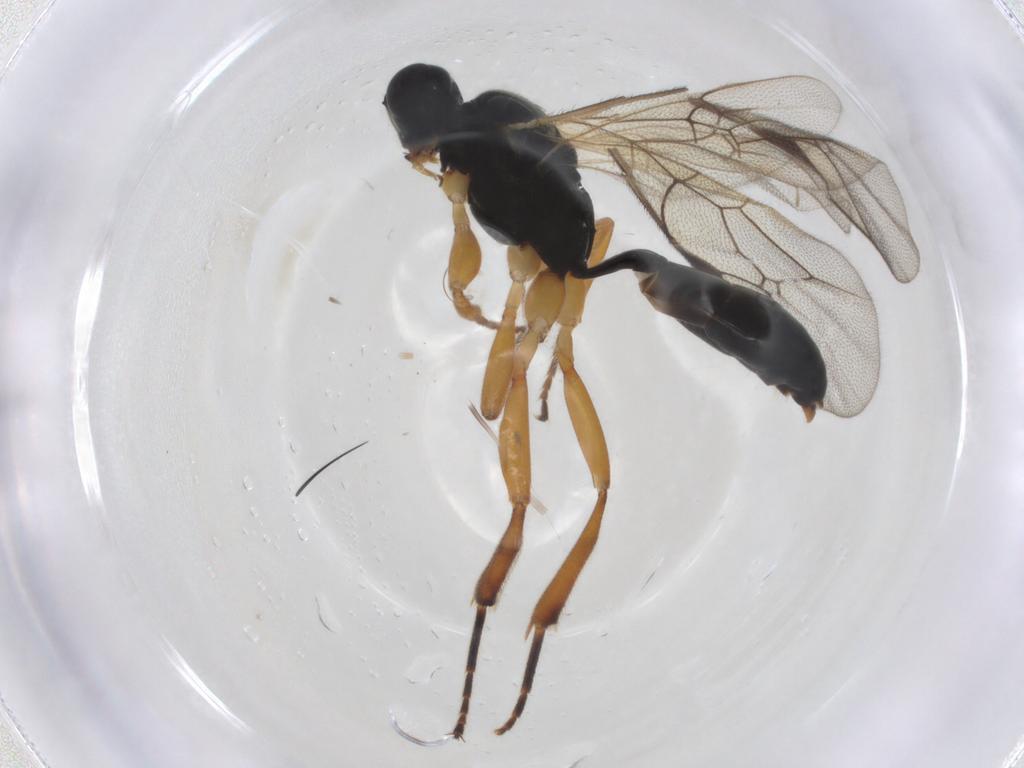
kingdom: Animalia
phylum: Arthropoda
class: Insecta
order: Hymenoptera
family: Ichneumonidae
